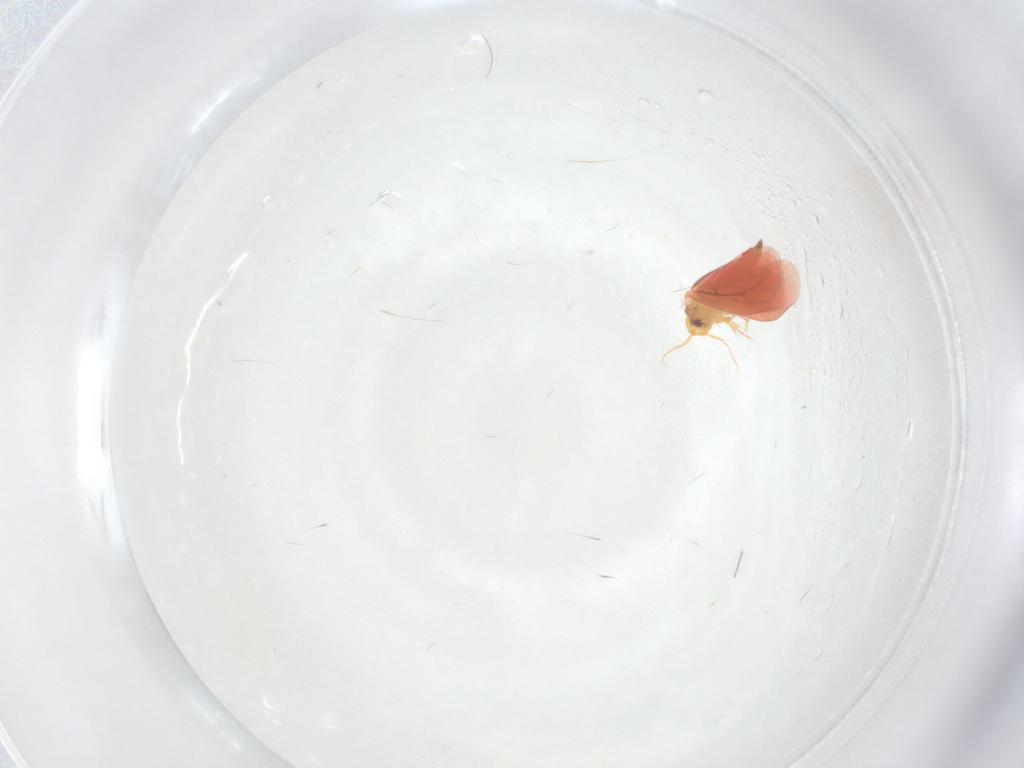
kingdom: Animalia
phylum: Arthropoda
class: Insecta
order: Hemiptera
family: Aleyrodidae
